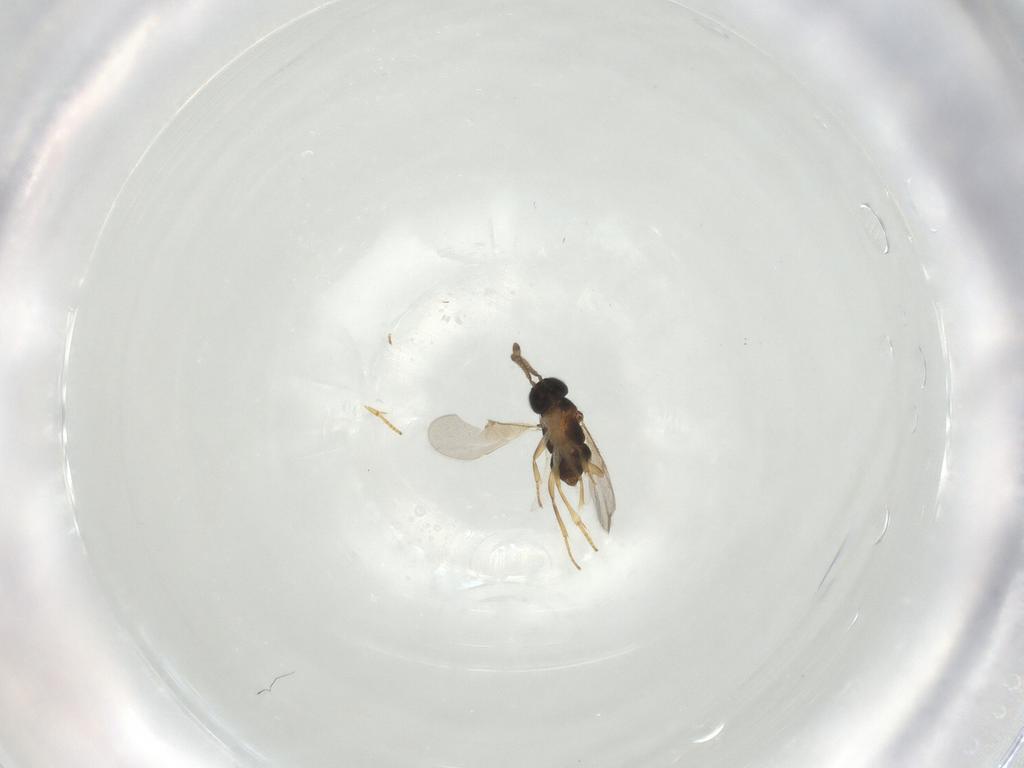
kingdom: Animalia
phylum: Arthropoda
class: Insecta
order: Hymenoptera
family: Encyrtidae
